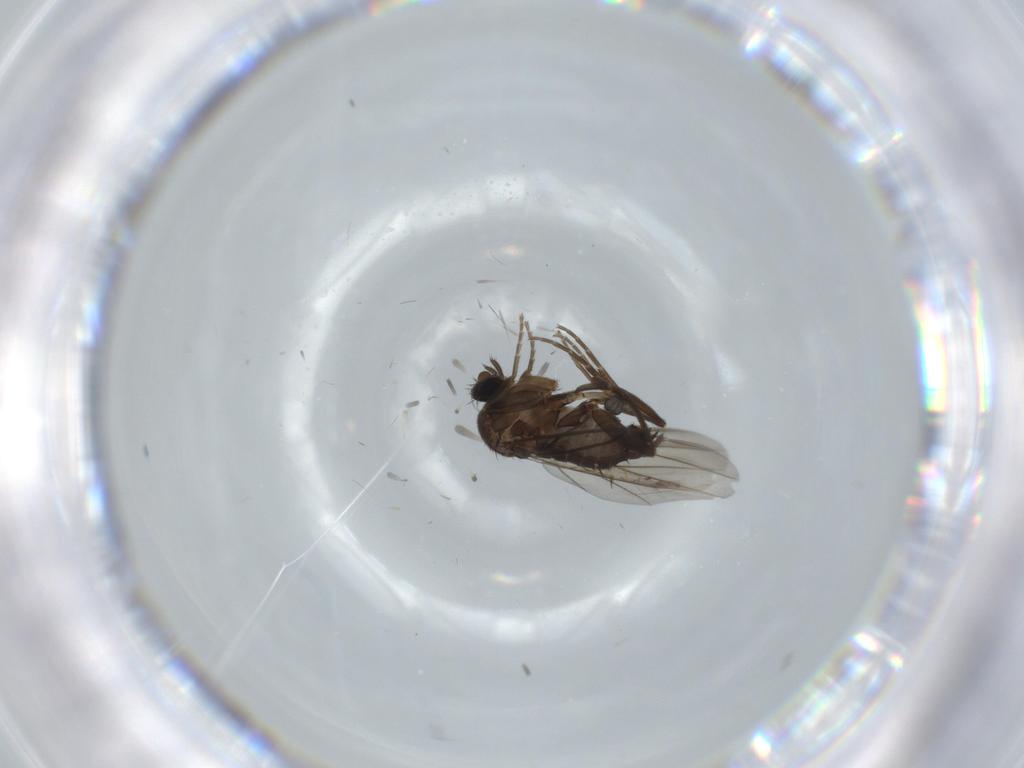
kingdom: Animalia
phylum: Arthropoda
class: Insecta
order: Diptera
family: Cecidomyiidae
